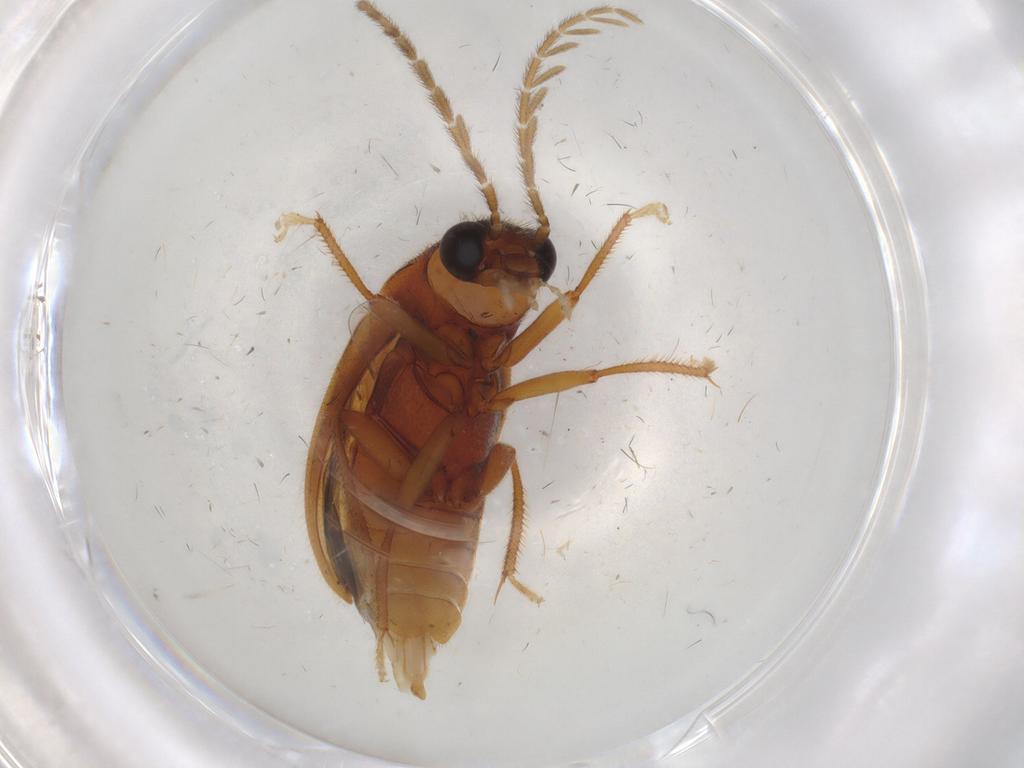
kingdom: Animalia
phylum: Arthropoda
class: Insecta
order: Coleoptera
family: Ptilodactylidae
